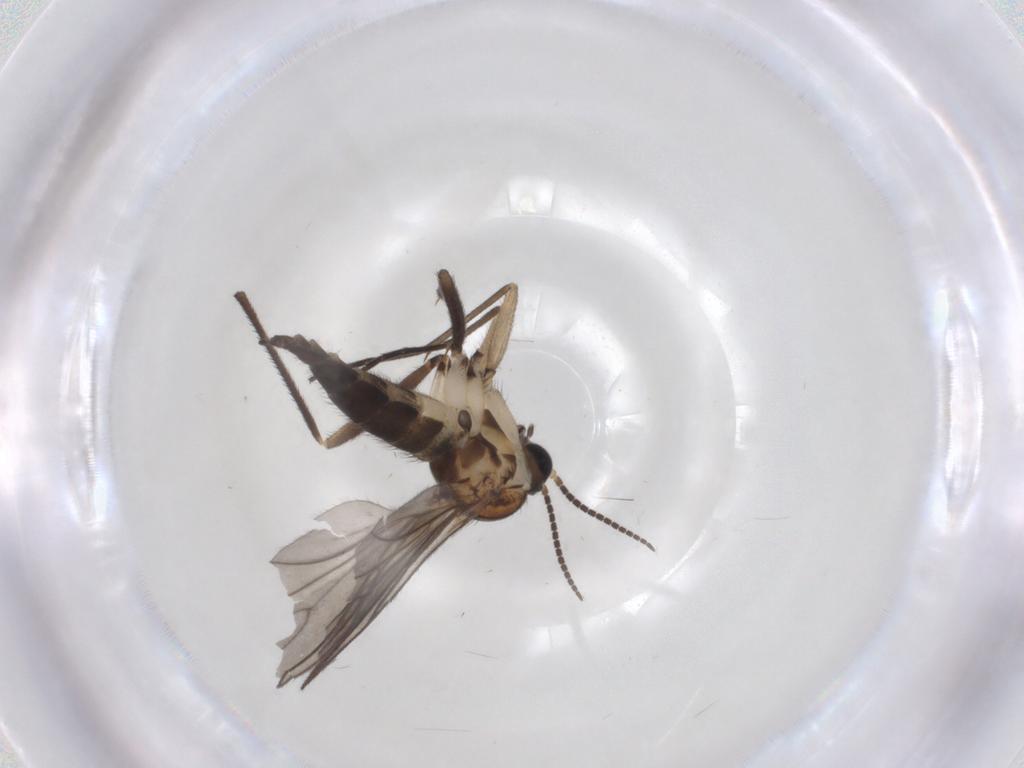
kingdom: Animalia
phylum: Arthropoda
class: Insecta
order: Diptera
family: Sciaridae
